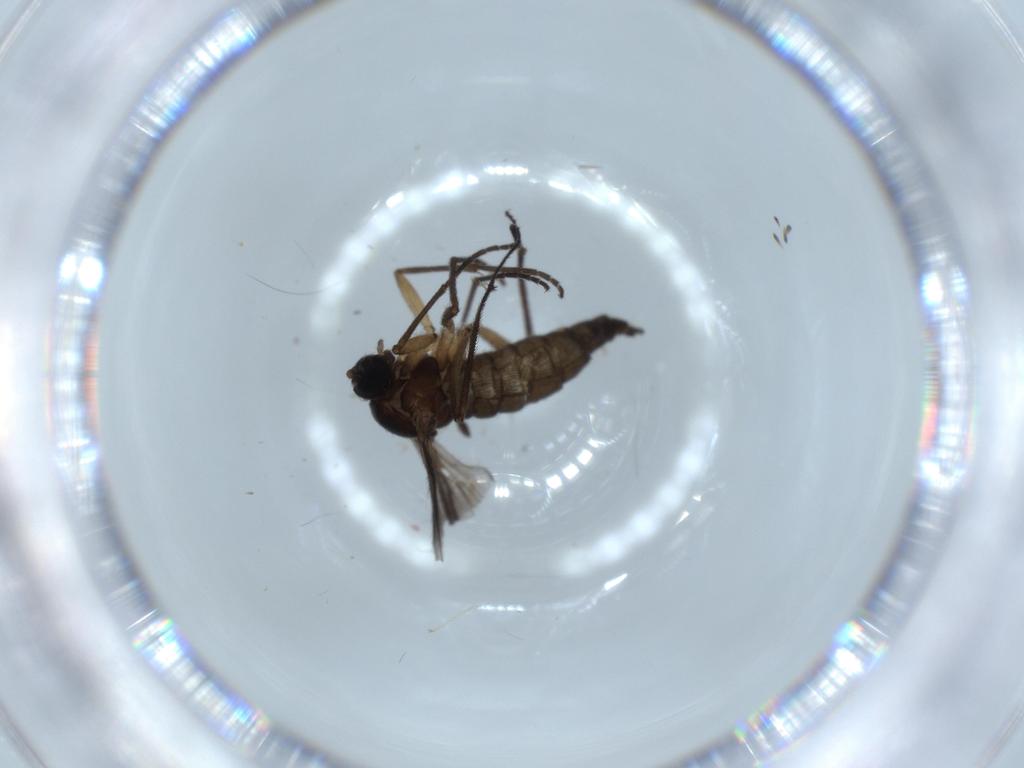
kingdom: Animalia
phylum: Arthropoda
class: Insecta
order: Diptera
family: Sciaridae
